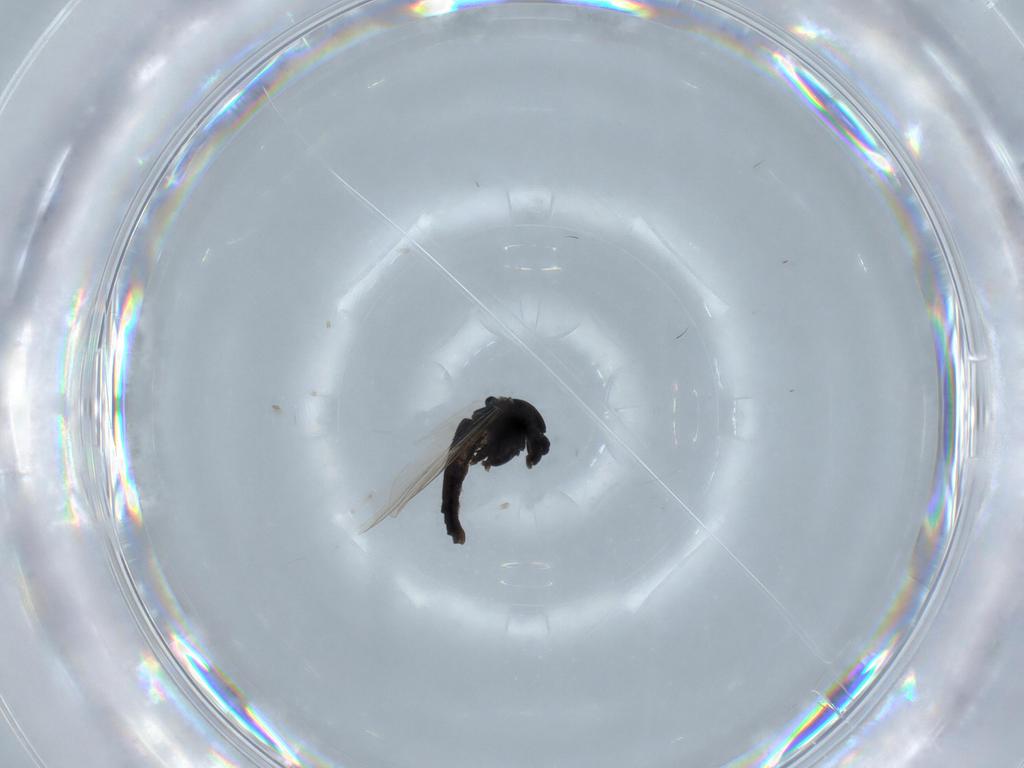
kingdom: Animalia
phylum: Arthropoda
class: Insecta
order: Diptera
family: Chironomidae
